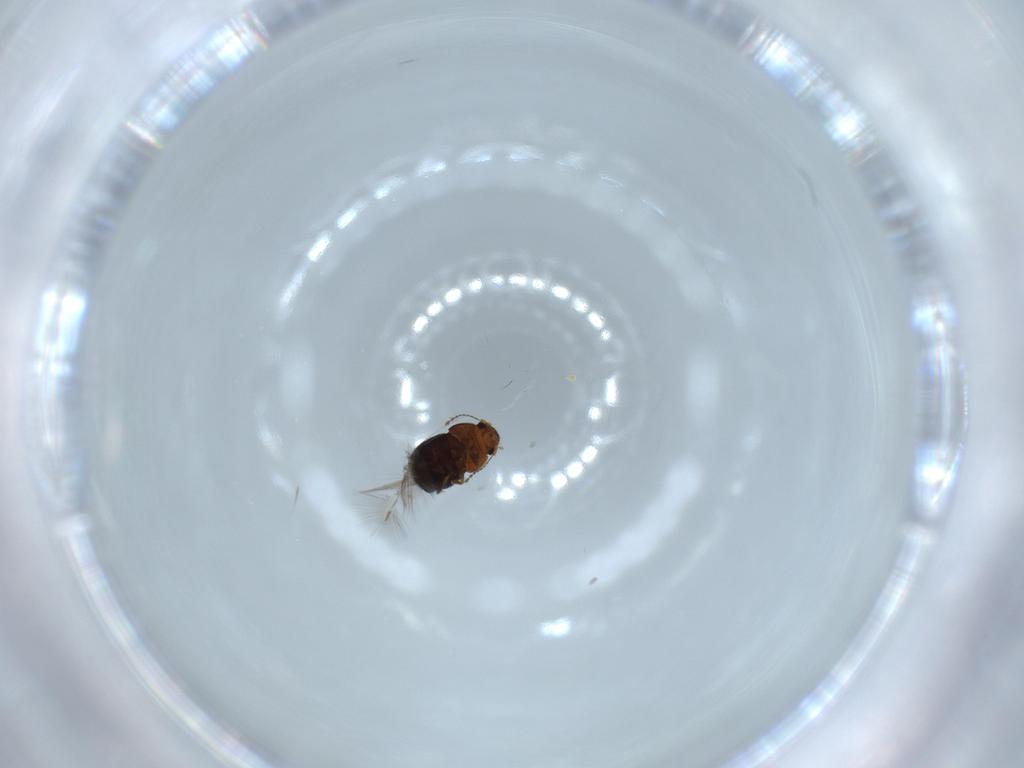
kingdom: Animalia
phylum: Arthropoda
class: Insecta
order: Coleoptera
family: Ptiliidae
